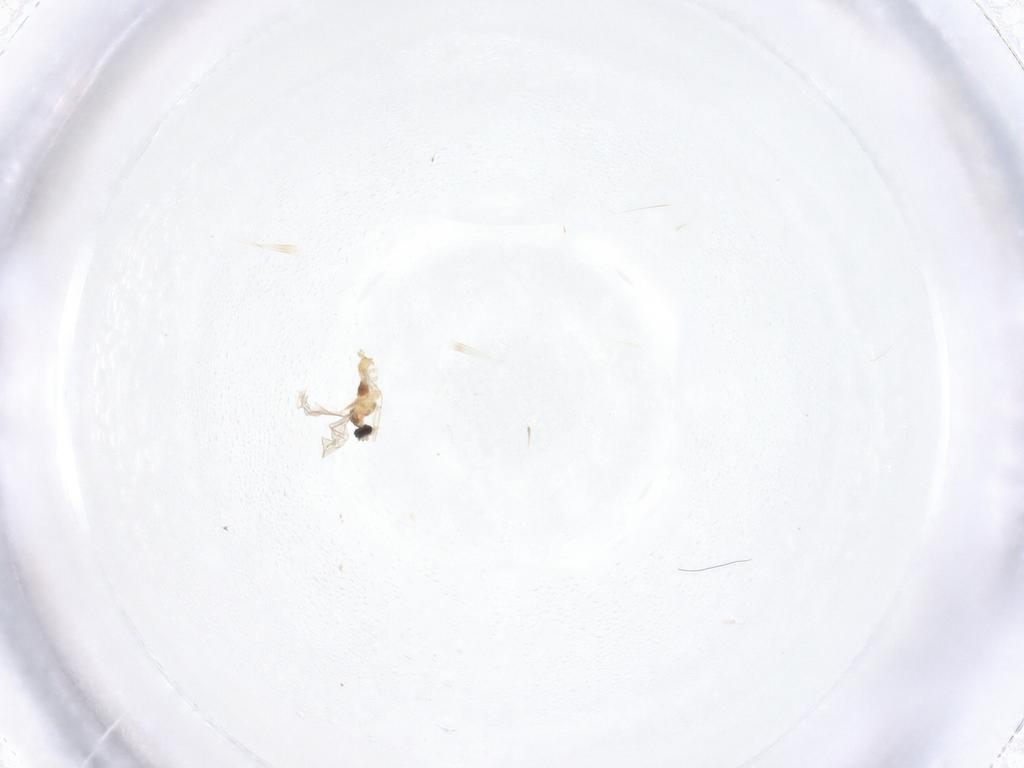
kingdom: Animalia
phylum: Arthropoda
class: Insecta
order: Diptera
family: Cecidomyiidae
